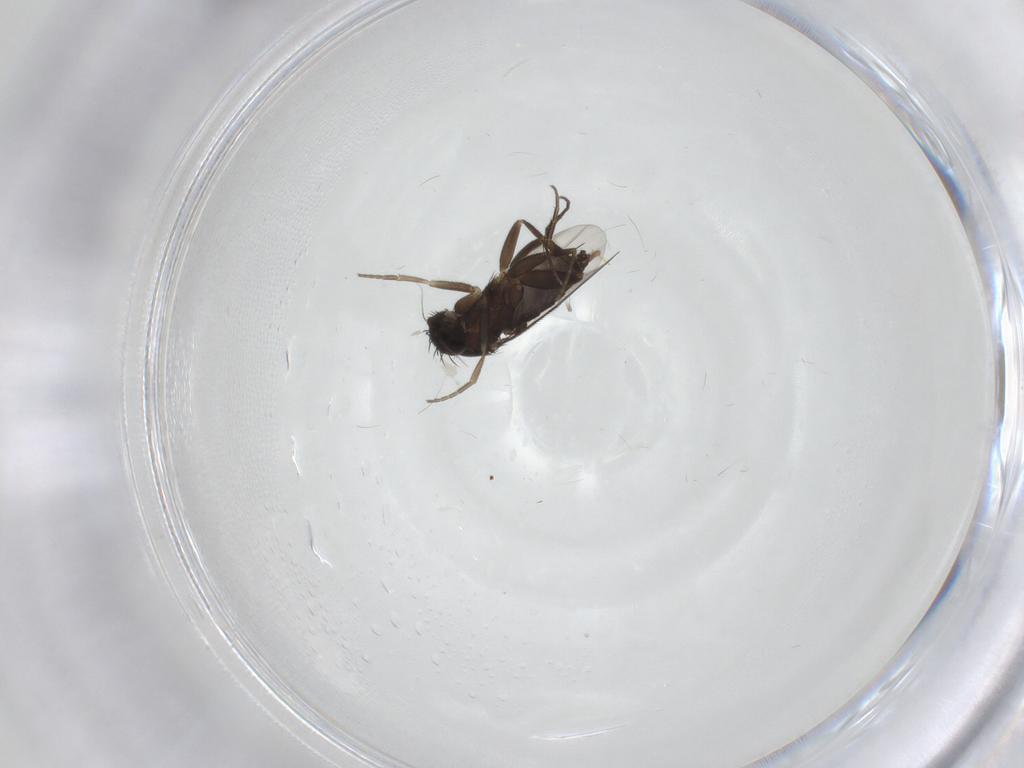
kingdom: Animalia
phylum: Arthropoda
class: Insecta
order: Diptera
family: Phoridae
